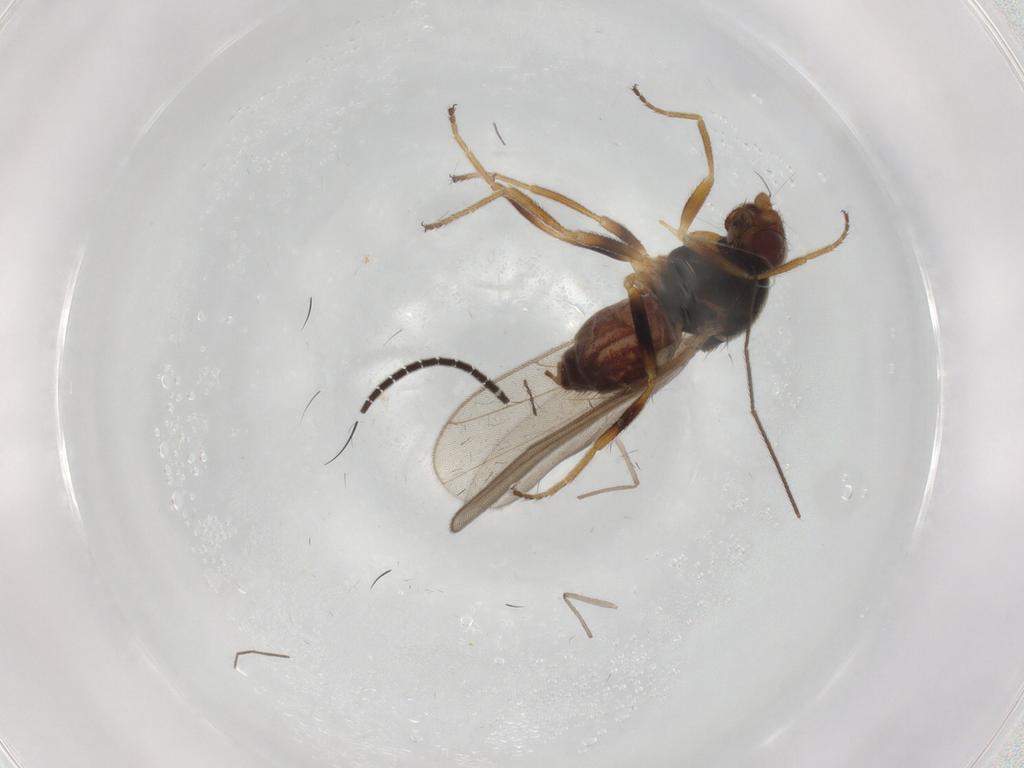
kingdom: Animalia
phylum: Arthropoda
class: Insecta
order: Diptera
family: Chloropidae
